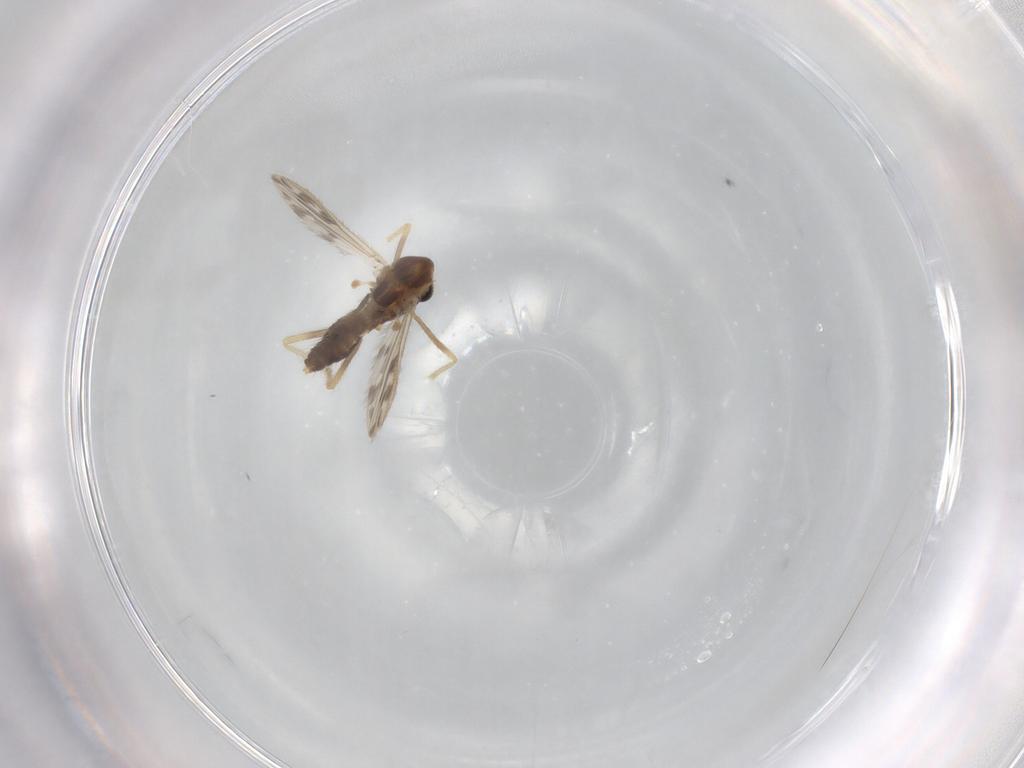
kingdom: Animalia
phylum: Arthropoda
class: Insecta
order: Diptera
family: Chironomidae
